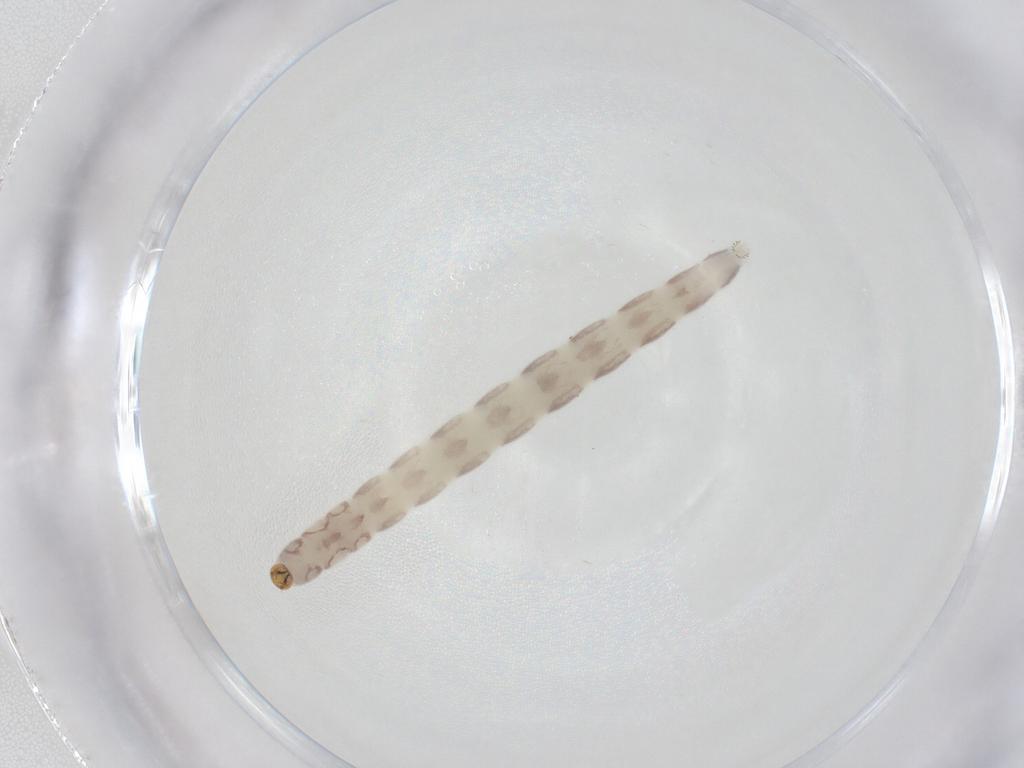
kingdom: Animalia
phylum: Arthropoda
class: Insecta
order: Diptera
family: Chironomidae
